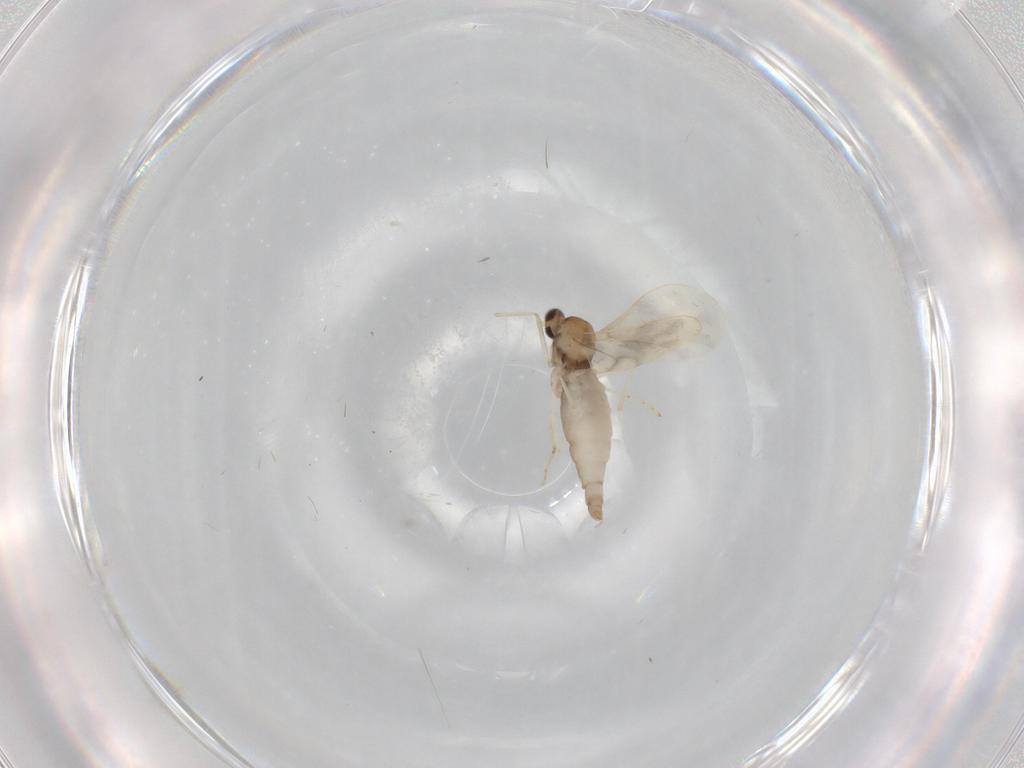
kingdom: Animalia
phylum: Arthropoda
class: Insecta
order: Diptera
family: Cecidomyiidae
